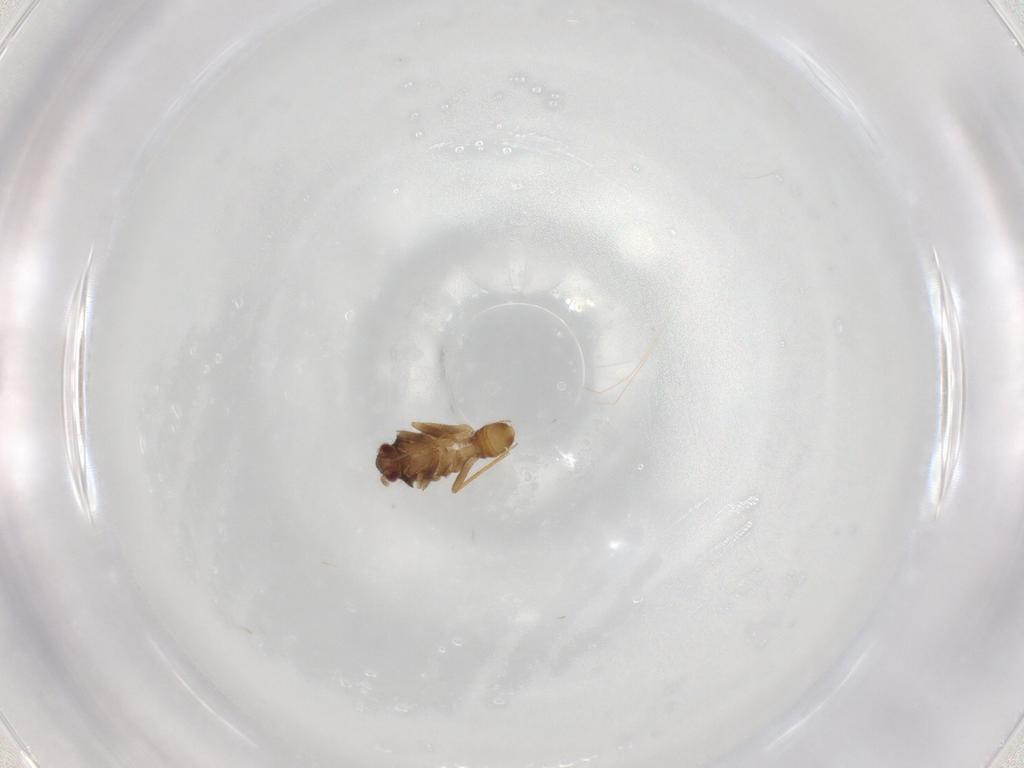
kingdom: Animalia
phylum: Arthropoda
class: Insecta
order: Hemiptera
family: Ceratocombidae
